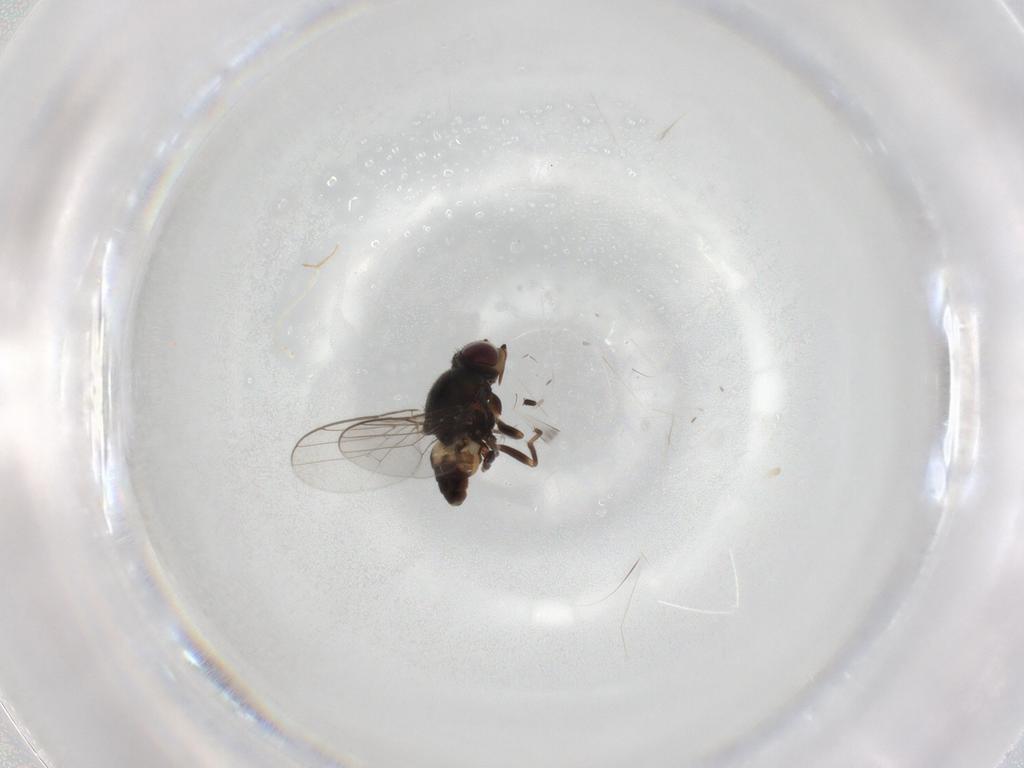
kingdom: Animalia
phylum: Arthropoda
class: Insecta
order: Diptera
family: Chloropidae
